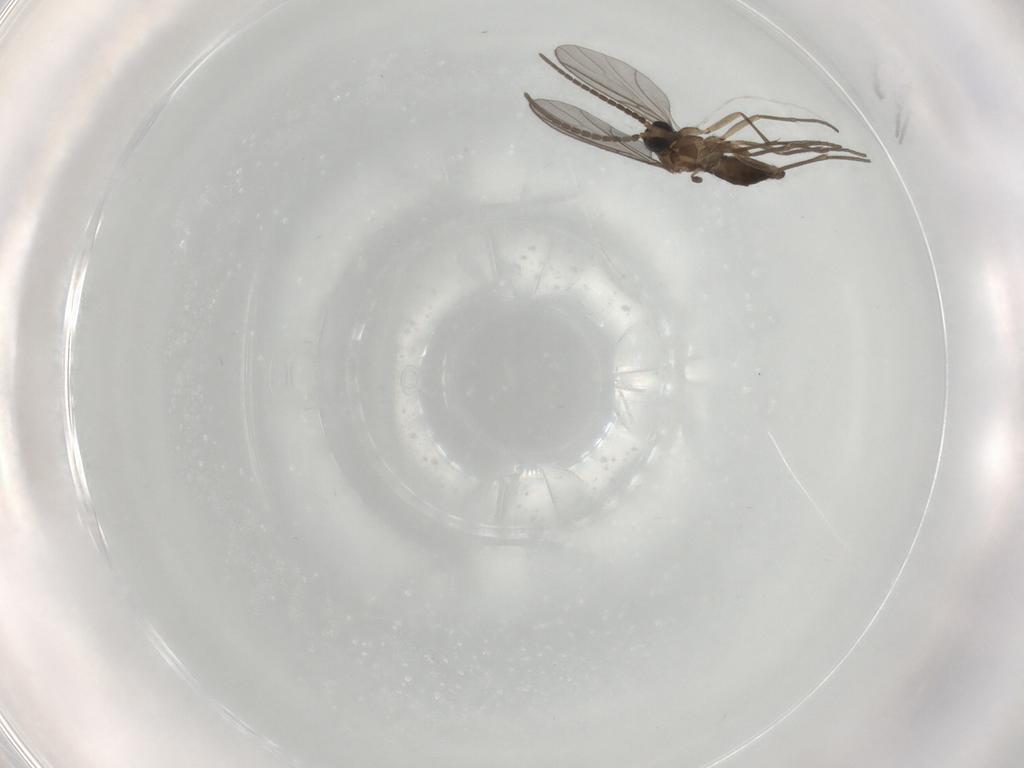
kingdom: Animalia
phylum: Arthropoda
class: Insecta
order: Diptera
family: Sciaridae
